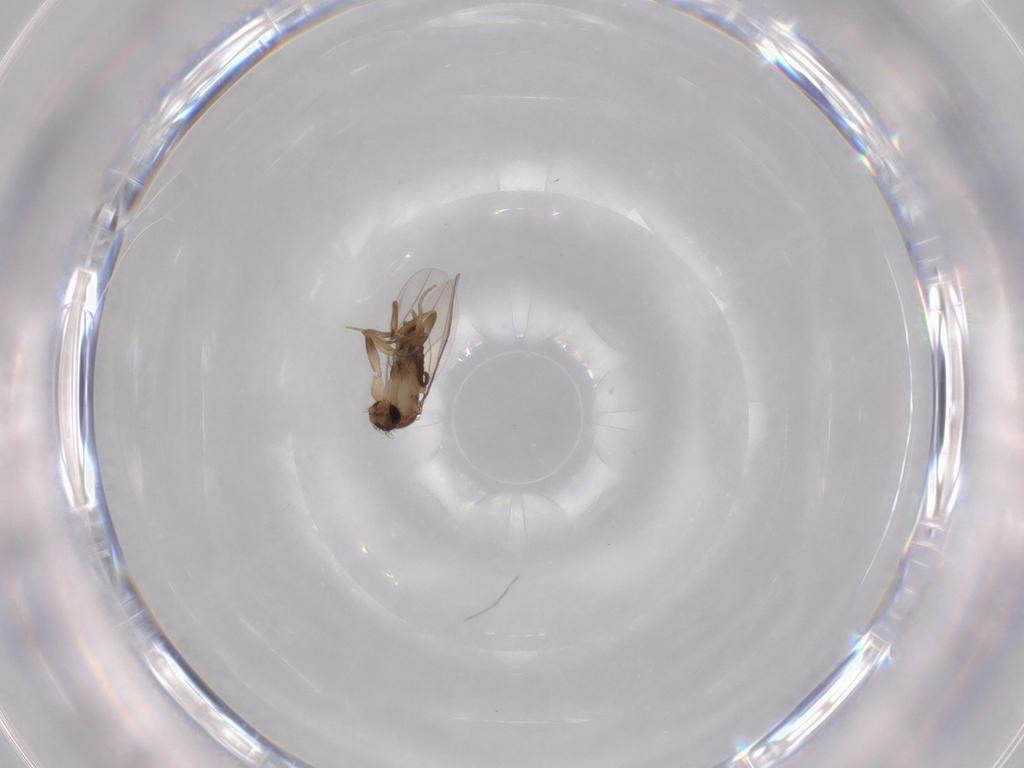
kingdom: Animalia
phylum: Arthropoda
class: Insecta
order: Diptera
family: Phoridae
